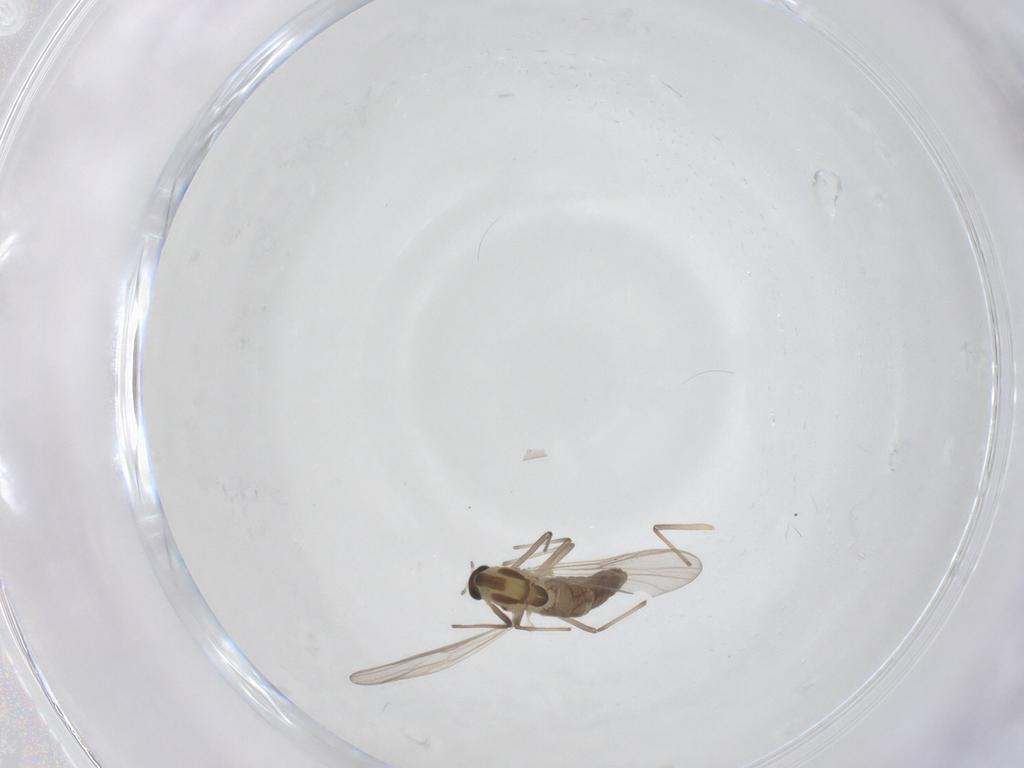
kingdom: Animalia
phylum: Arthropoda
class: Insecta
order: Diptera
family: Chironomidae
